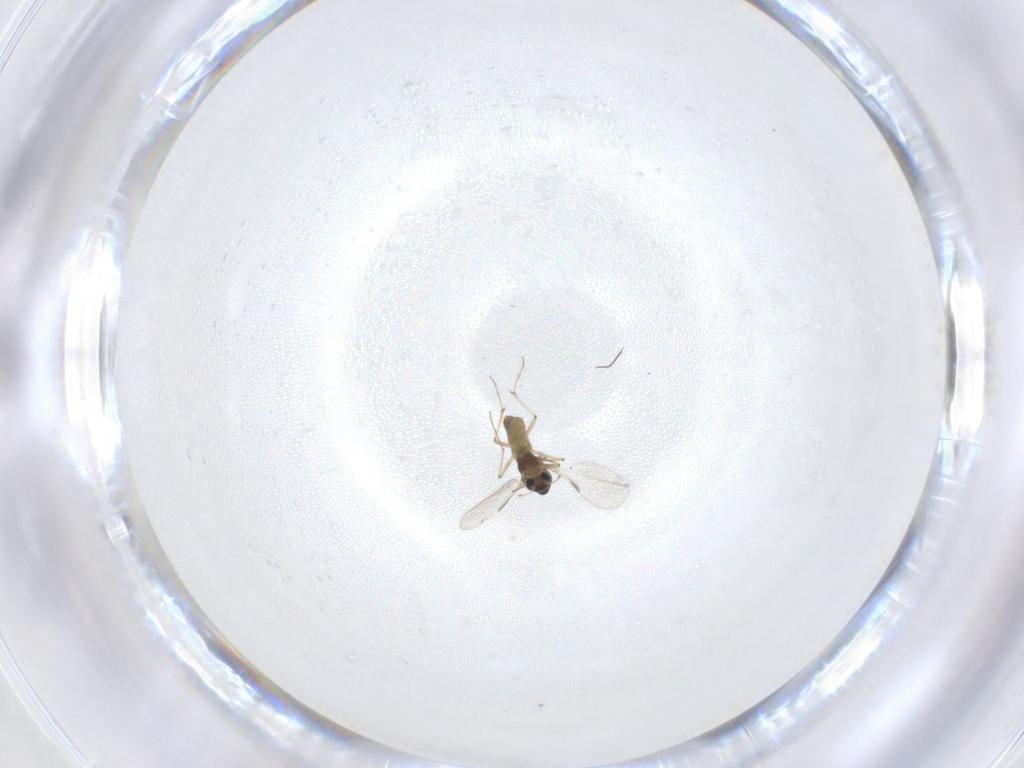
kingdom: Animalia
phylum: Arthropoda
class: Insecta
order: Diptera
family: Chironomidae
